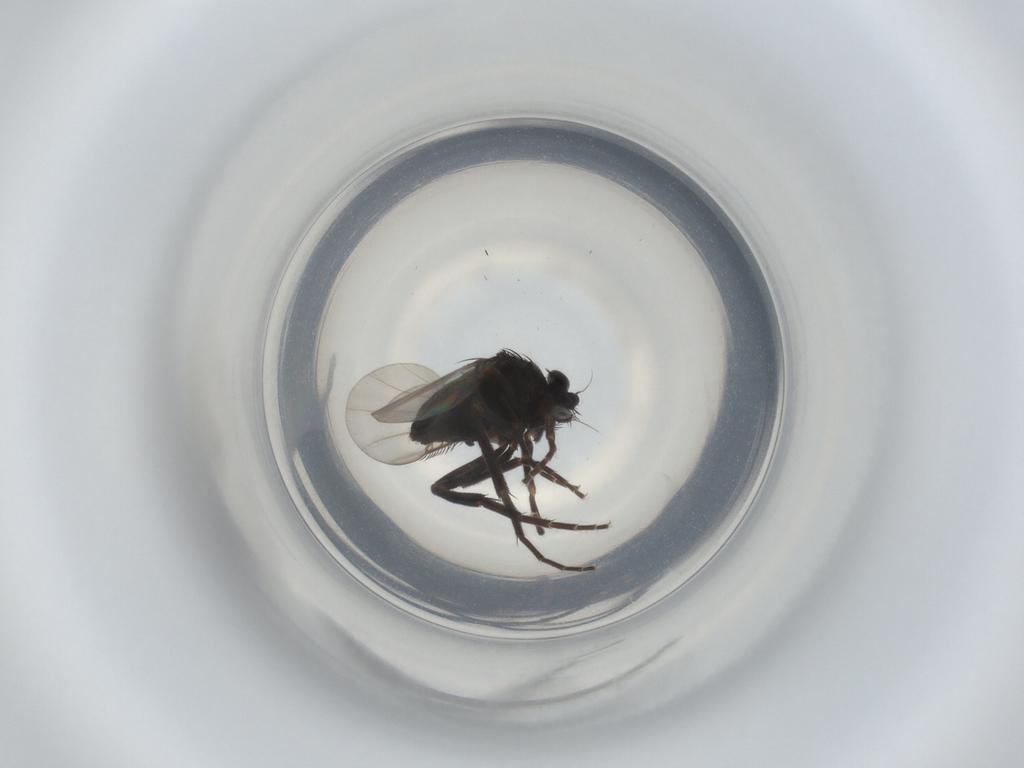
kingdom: Animalia
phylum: Arthropoda
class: Insecta
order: Diptera
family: Phoridae
